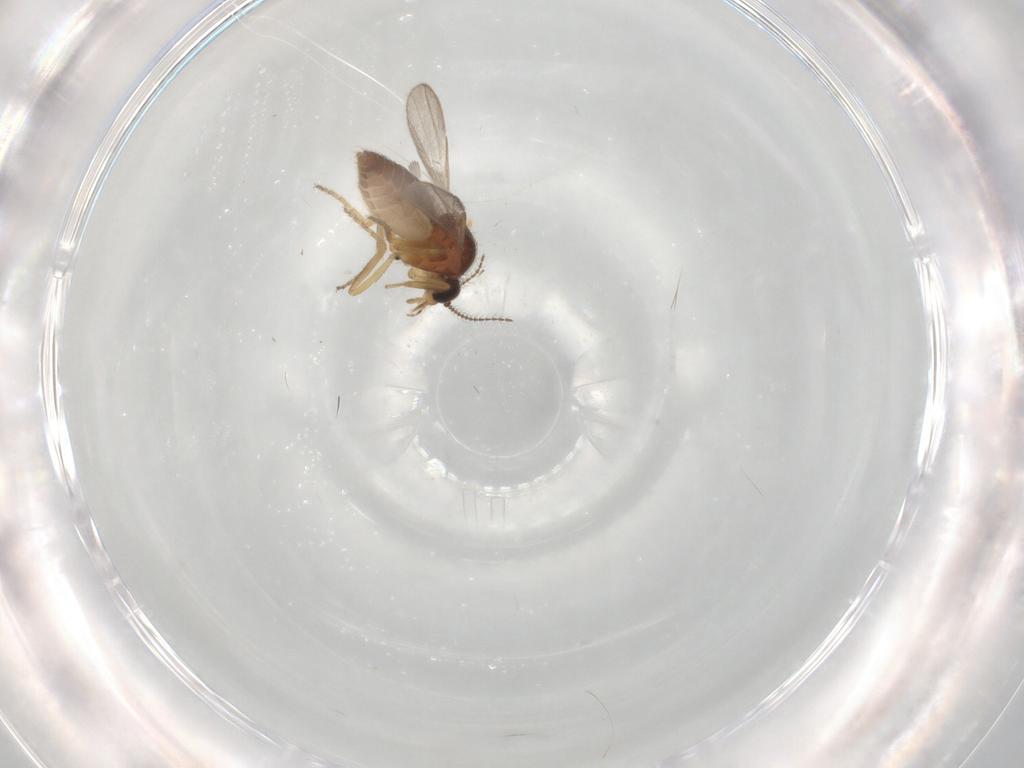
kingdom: Animalia
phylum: Arthropoda
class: Insecta
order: Diptera
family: Ceratopogonidae
